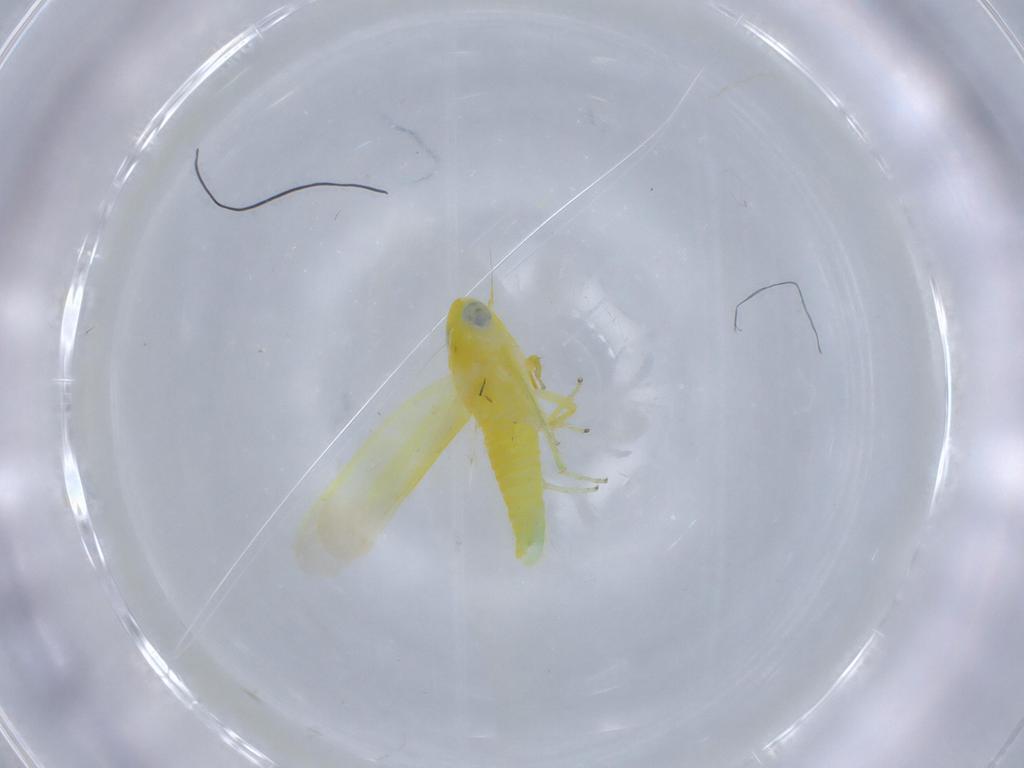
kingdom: Animalia
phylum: Arthropoda
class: Insecta
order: Hemiptera
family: Cicadellidae
